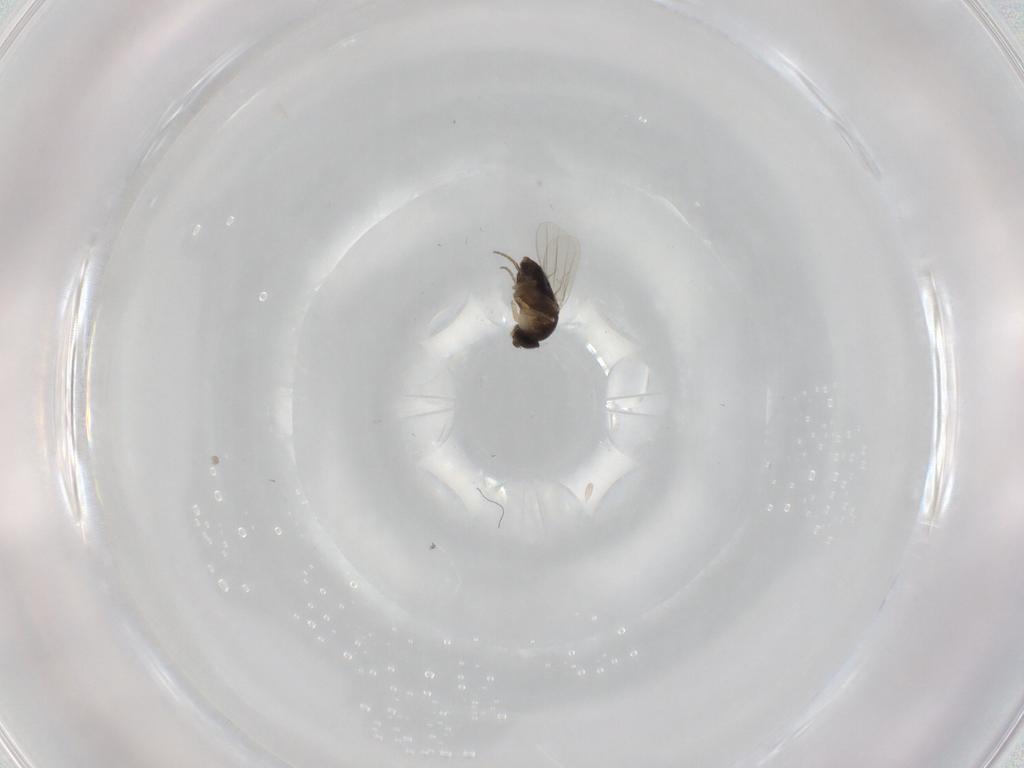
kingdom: Animalia
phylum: Arthropoda
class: Insecta
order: Diptera
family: Phoridae
